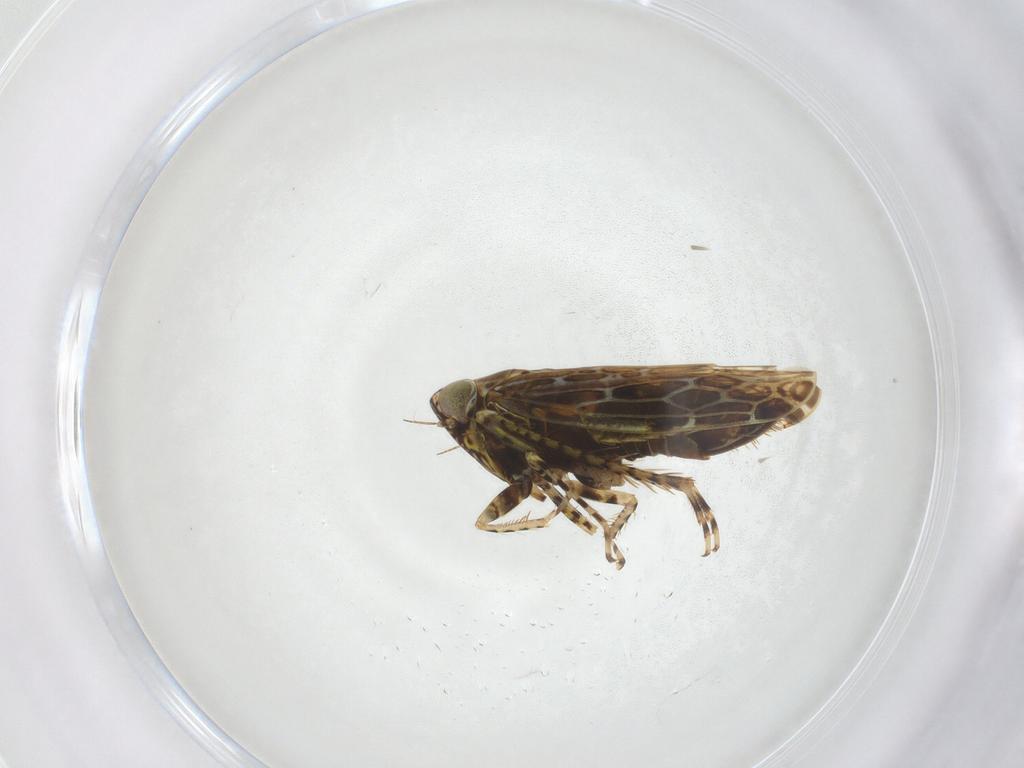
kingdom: Animalia
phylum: Arthropoda
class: Insecta
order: Hemiptera
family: Cicadellidae
